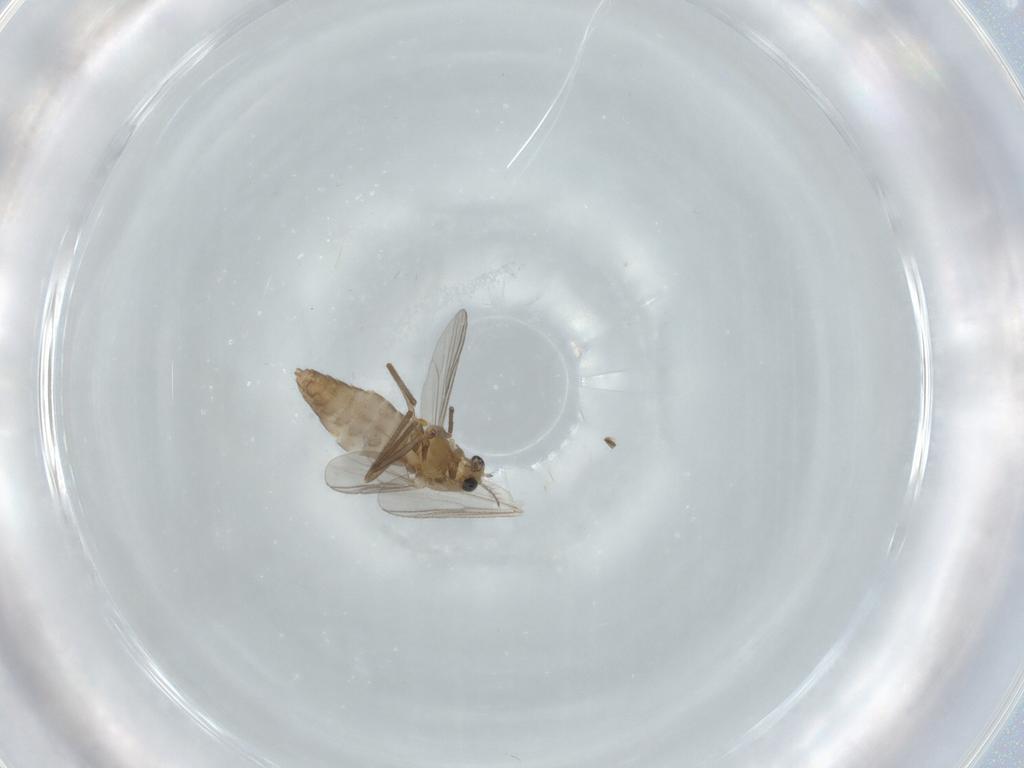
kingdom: Animalia
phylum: Arthropoda
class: Insecta
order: Diptera
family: Chironomidae
